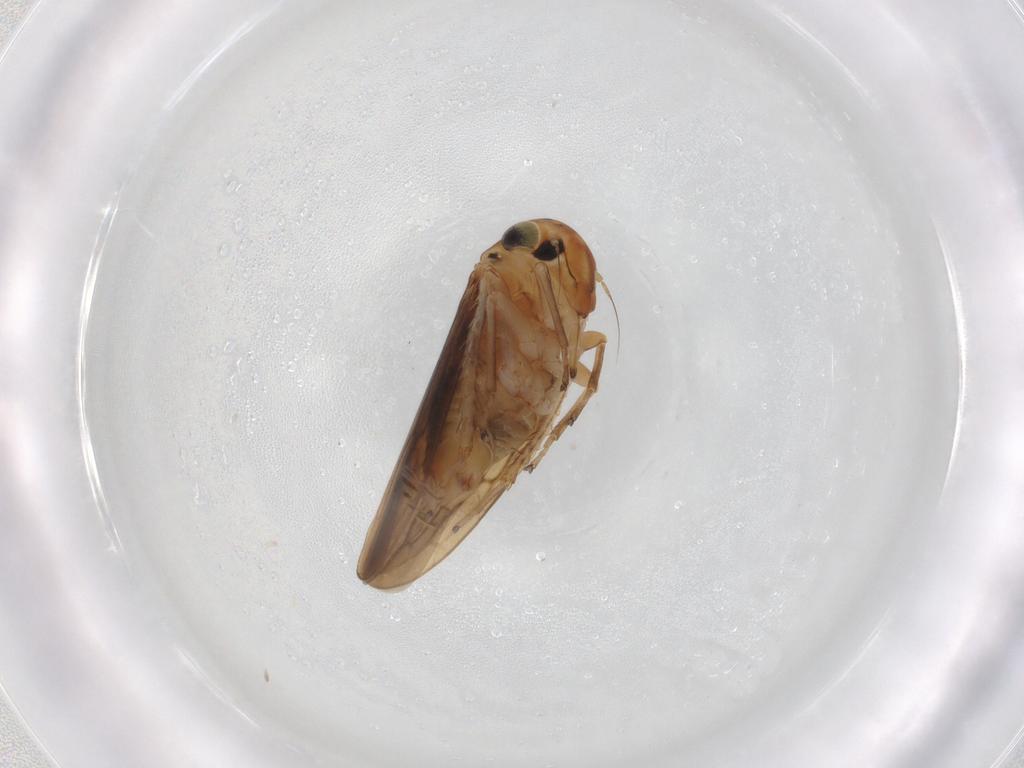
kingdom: Animalia
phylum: Arthropoda
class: Insecta
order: Hemiptera
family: Cicadellidae
